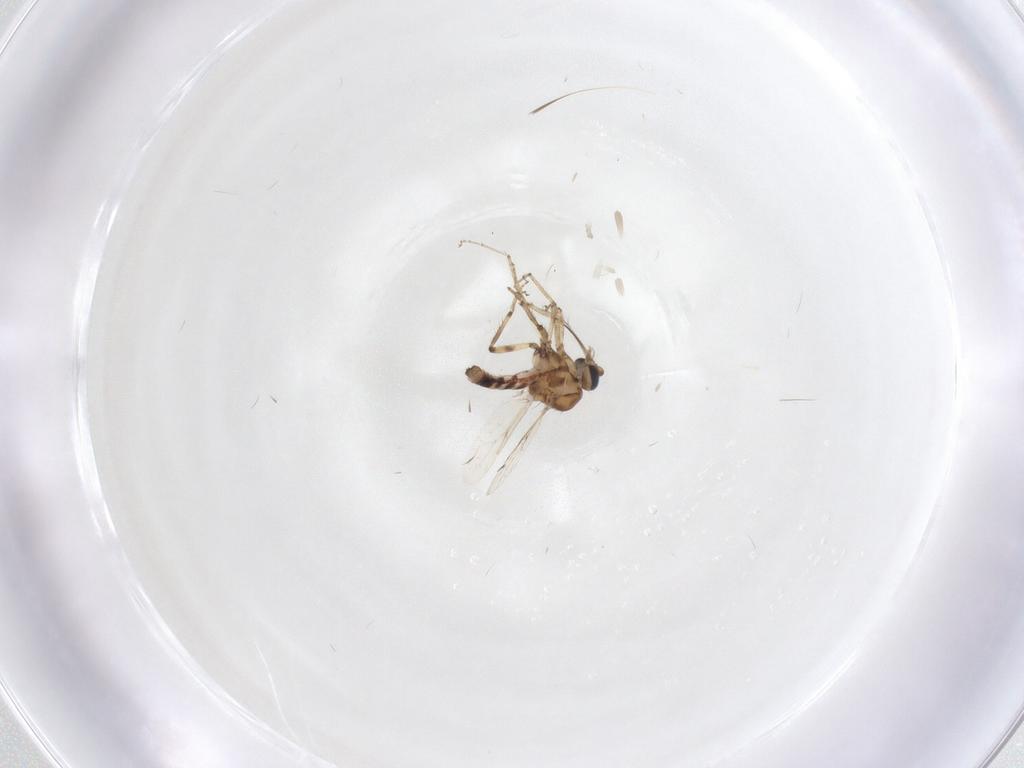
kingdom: Animalia
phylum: Arthropoda
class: Insecta
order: Diptera
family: Ceratopogonidae
